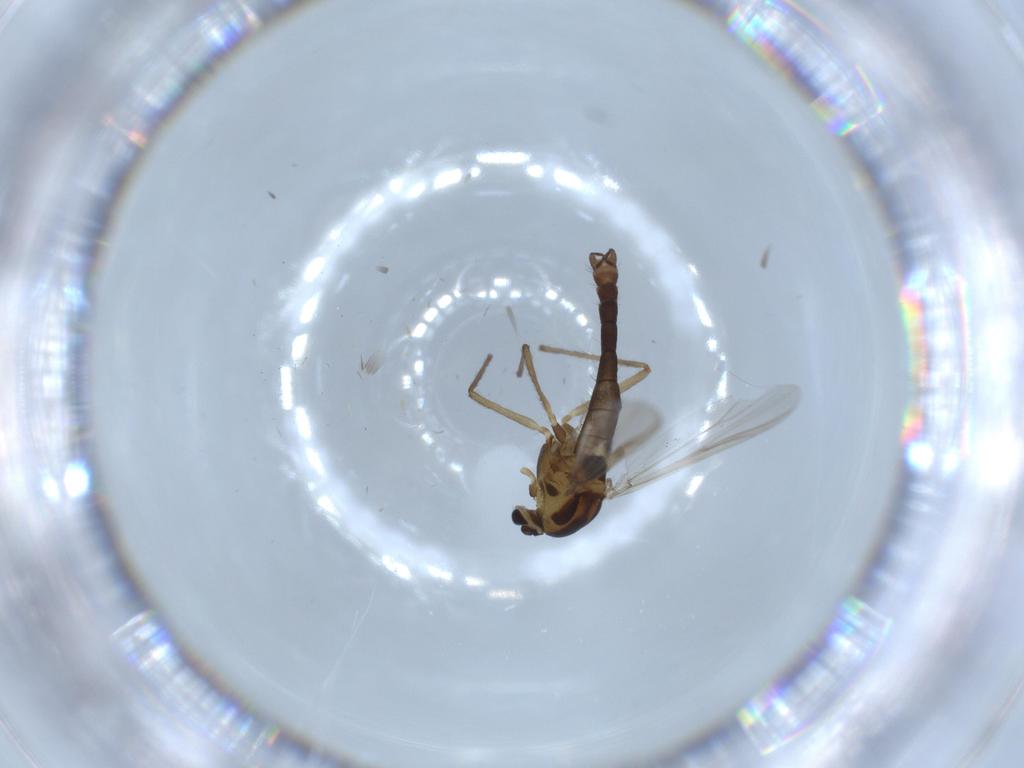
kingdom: Animalia
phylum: Arthropoda
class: Insecta
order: Diptera
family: Chironomidae
